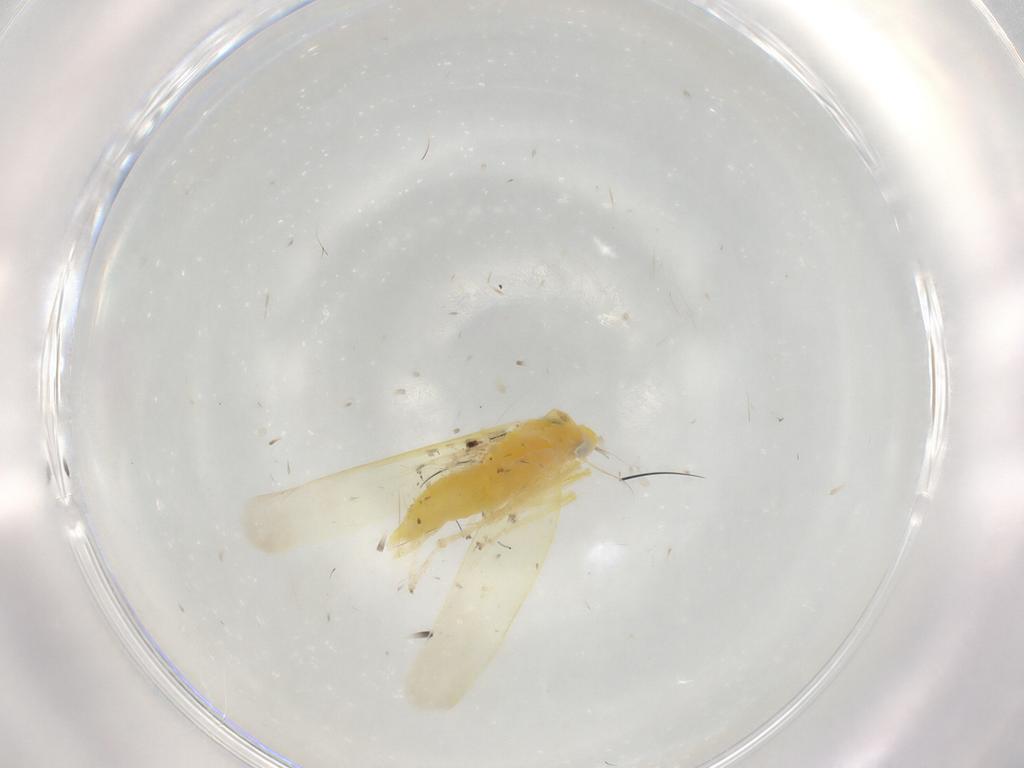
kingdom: Animalia
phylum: Arthropoda
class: Insecta
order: Hemiptera
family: Cicadellidae
